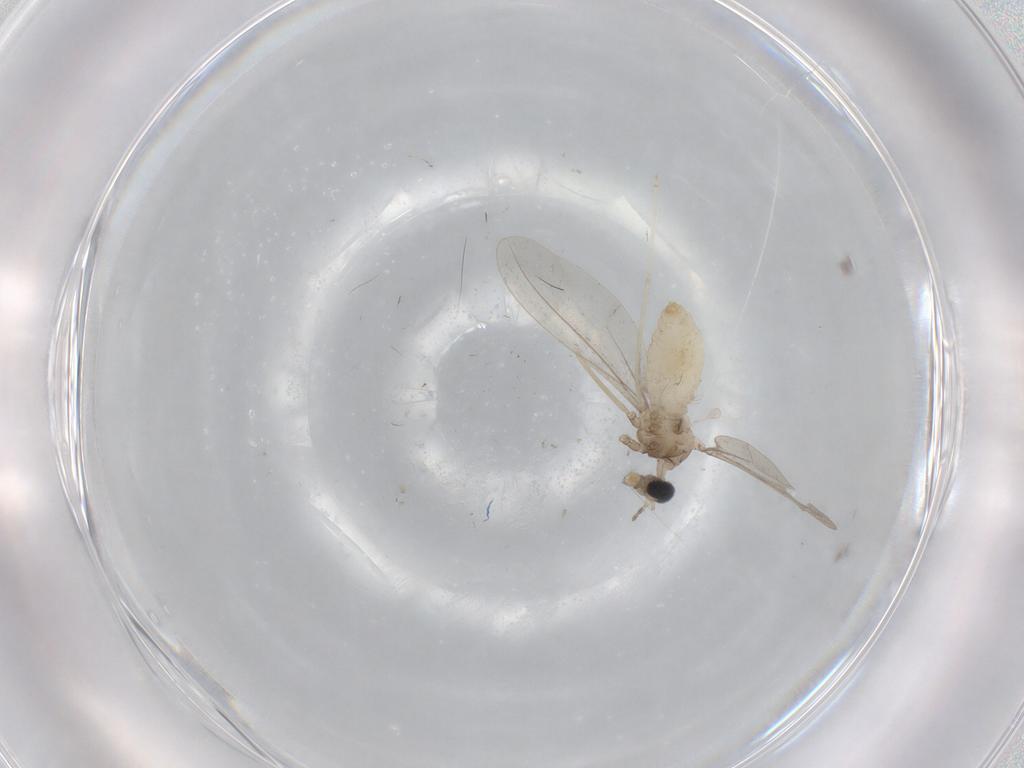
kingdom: Animalia
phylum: Arthropoda
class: Insecta
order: Diptera
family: Cecidomyiidae
